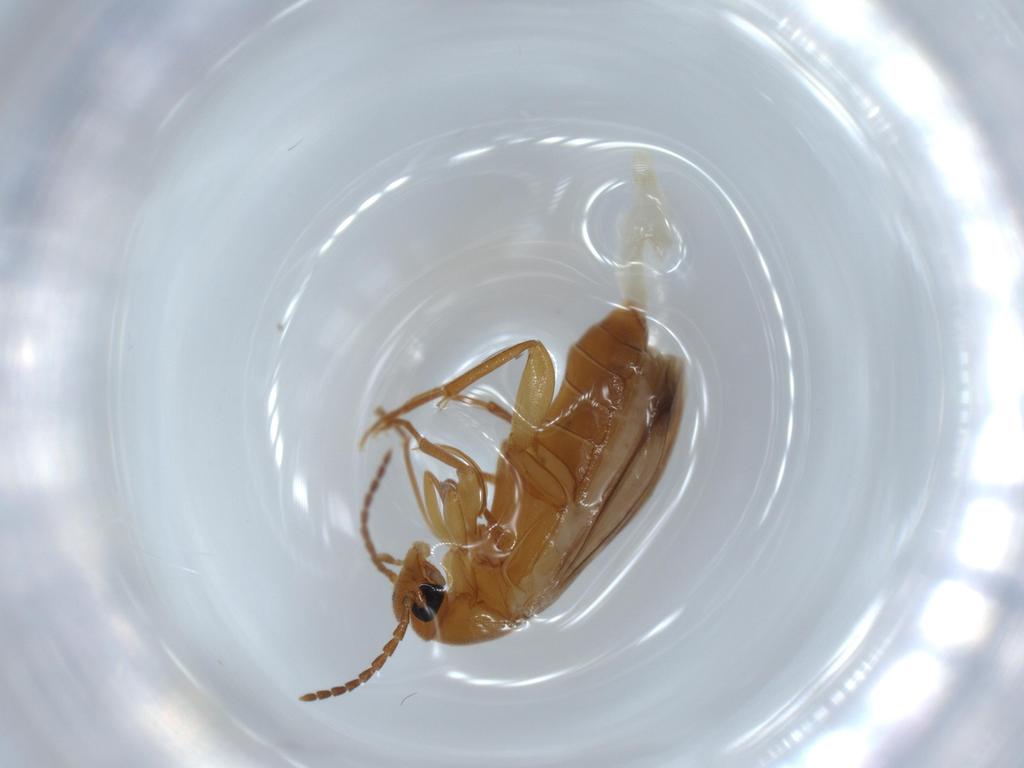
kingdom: Animalia
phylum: Arthropoda
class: Insecta
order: Coleoptera
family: Scraptiidae
